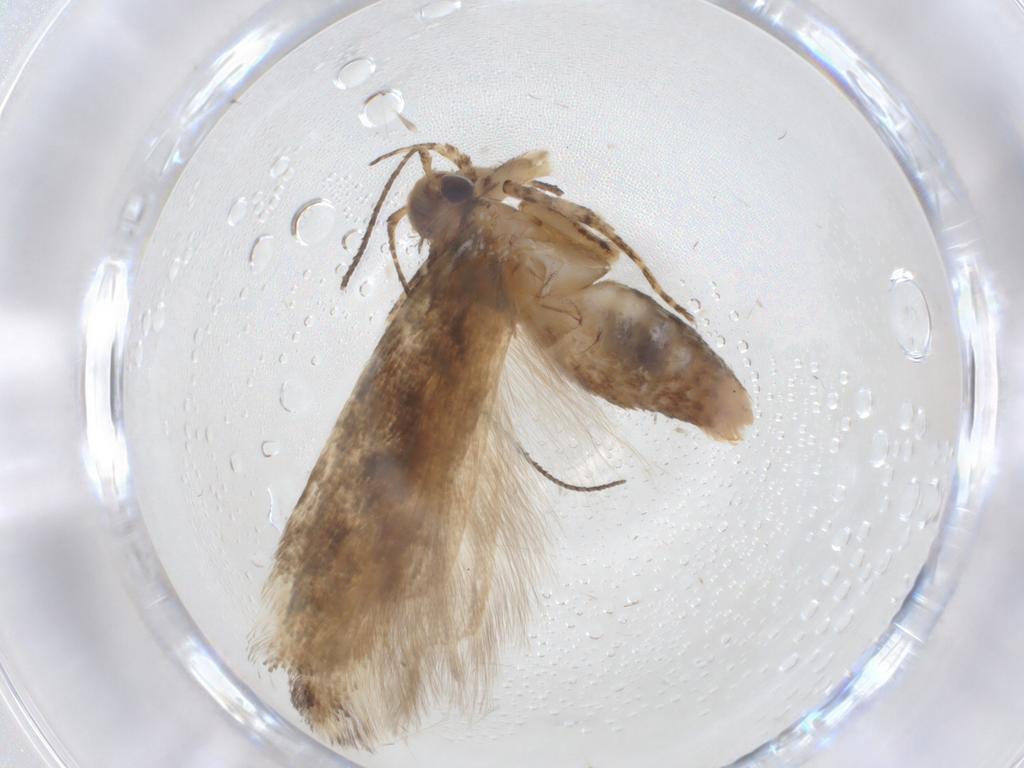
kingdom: Animalia
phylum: Arthropoda
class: Insecta
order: Lepidoptera
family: Gelechiidae
